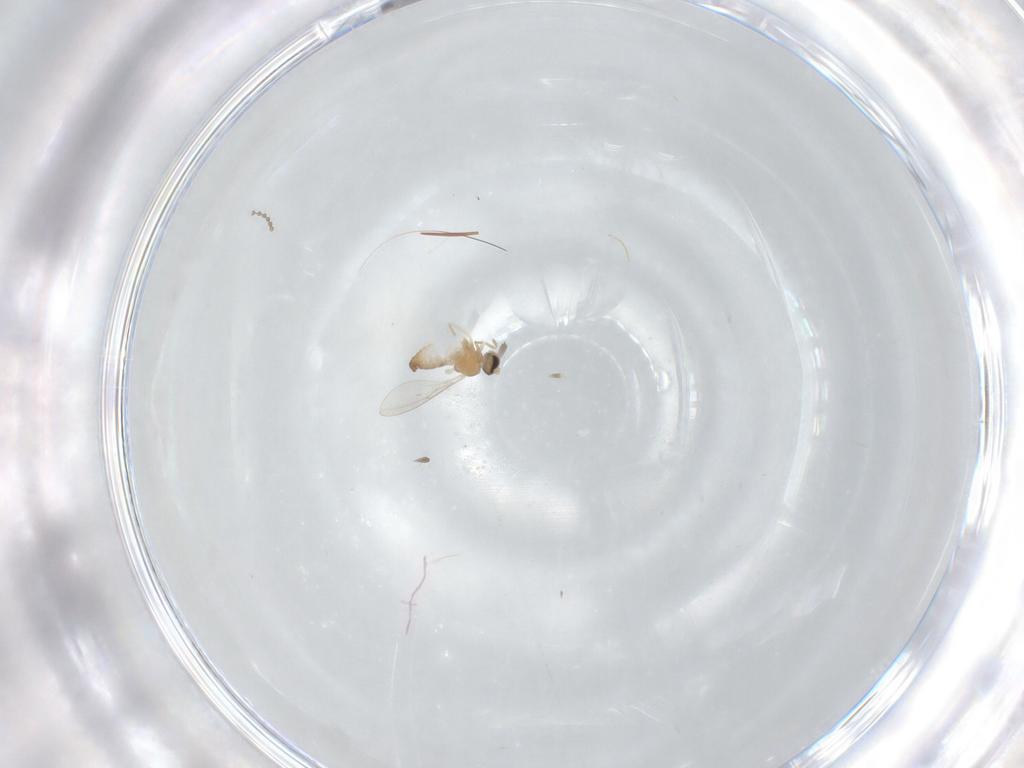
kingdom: Animalia
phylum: Arthropoda
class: Insecta
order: Diptera
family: Cecidomyiidae
